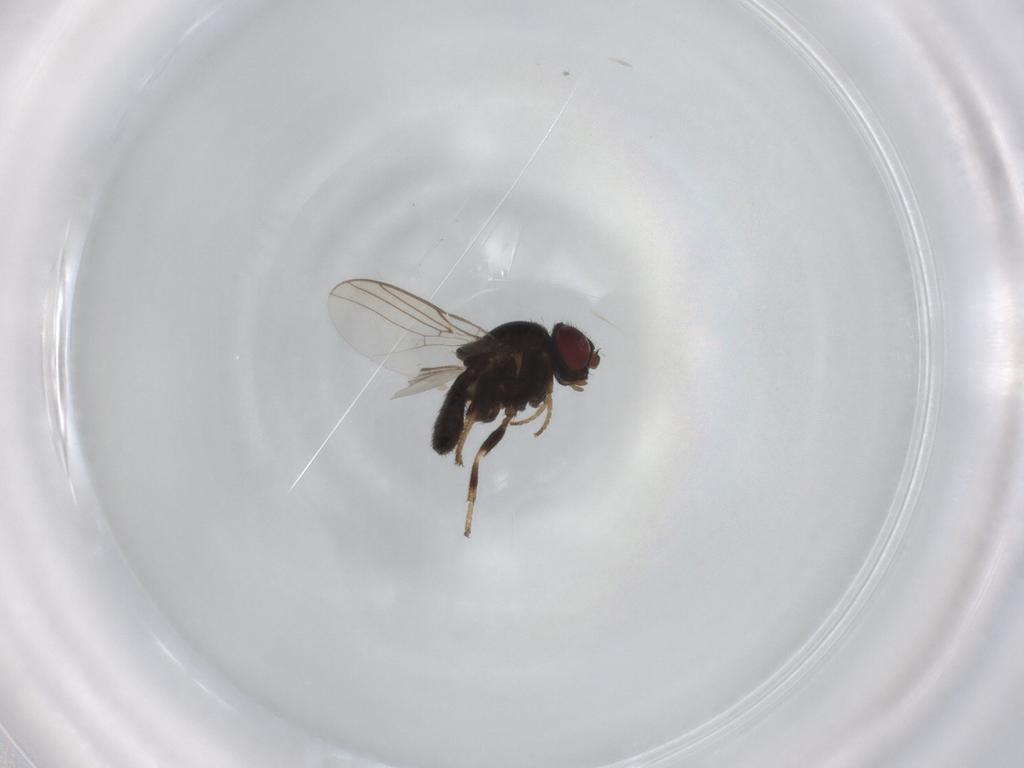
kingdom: Animalia
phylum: Arthropoda
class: Insecta
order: Diptera
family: Chloropidae
